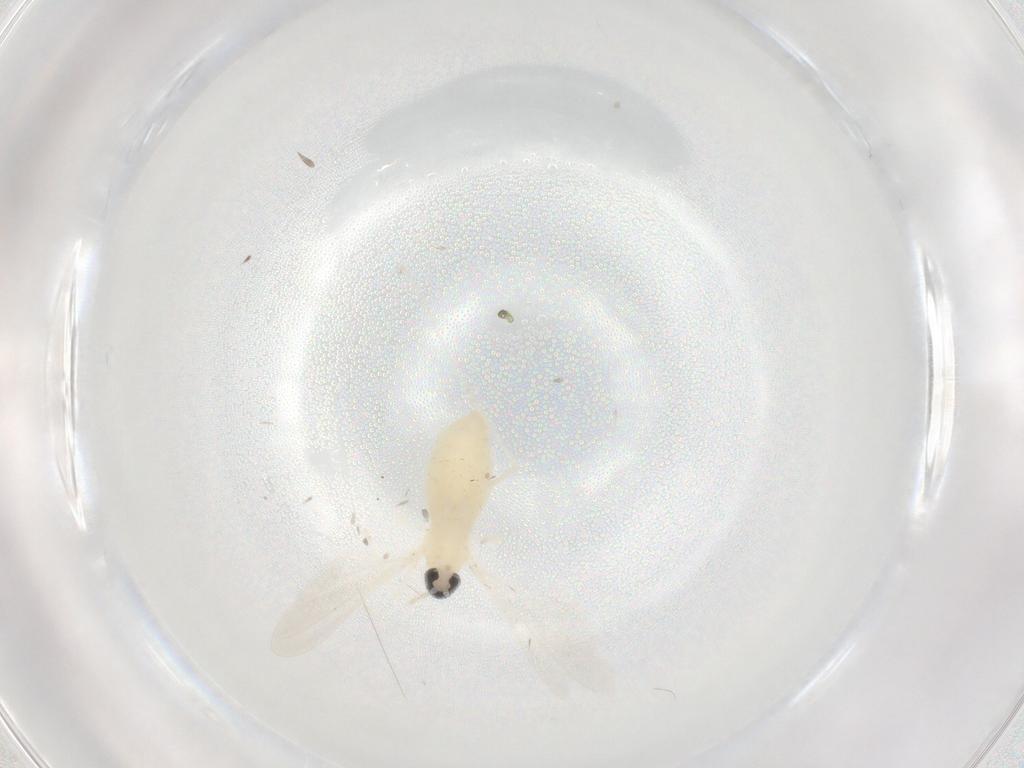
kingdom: Animalia
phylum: Arthropoda
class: Insecta
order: Diptera
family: Cecidomyiidae
